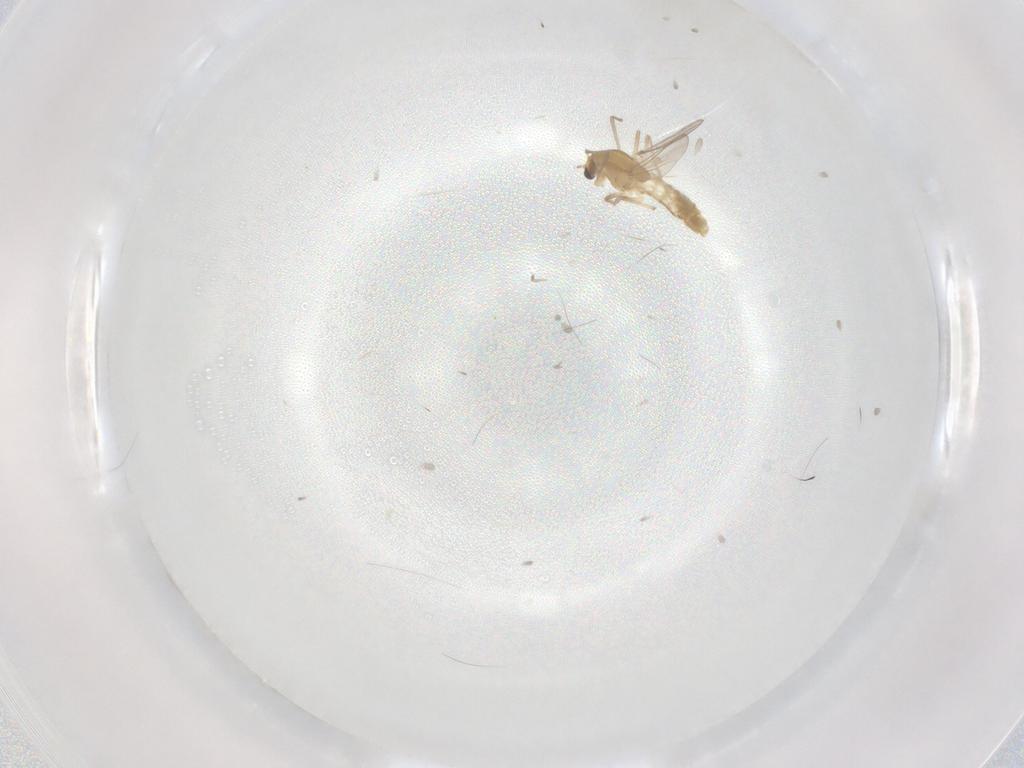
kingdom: Animalia
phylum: Arthropoda
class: Insecta
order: Diptera
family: Chironomidae
